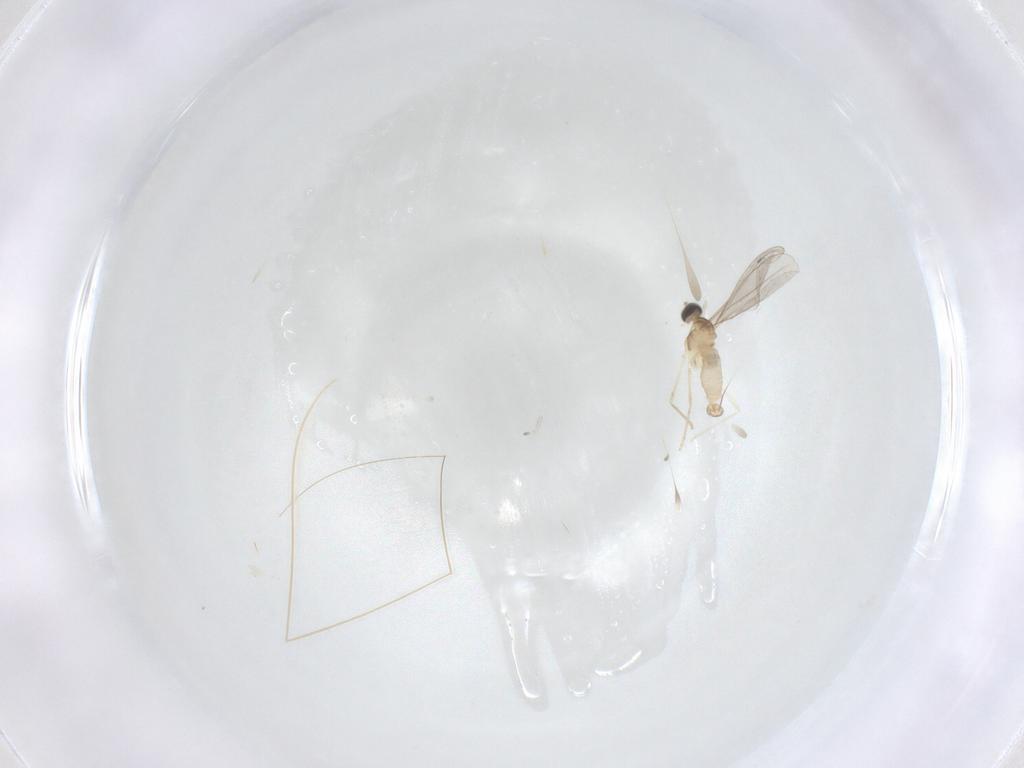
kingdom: Animalia
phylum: Arthropoda
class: Insecta
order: Diptera
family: Cecidomyiidae
